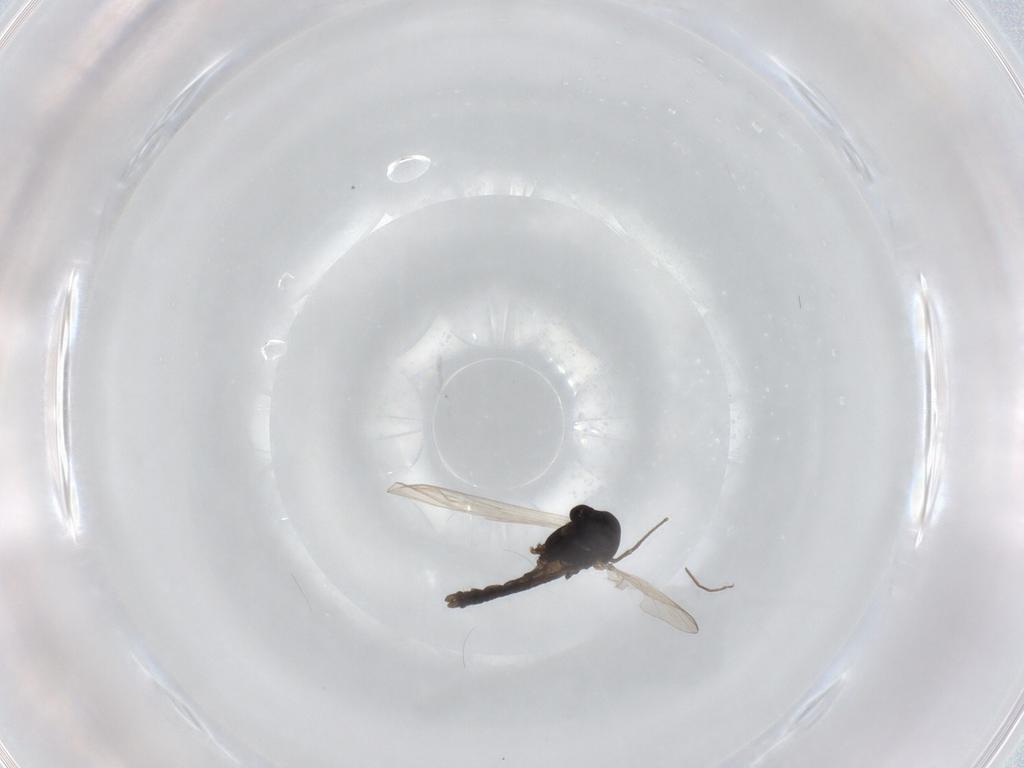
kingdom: Animalia
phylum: Arthropoda
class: Insecta
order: Diptera
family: Chironomidae
